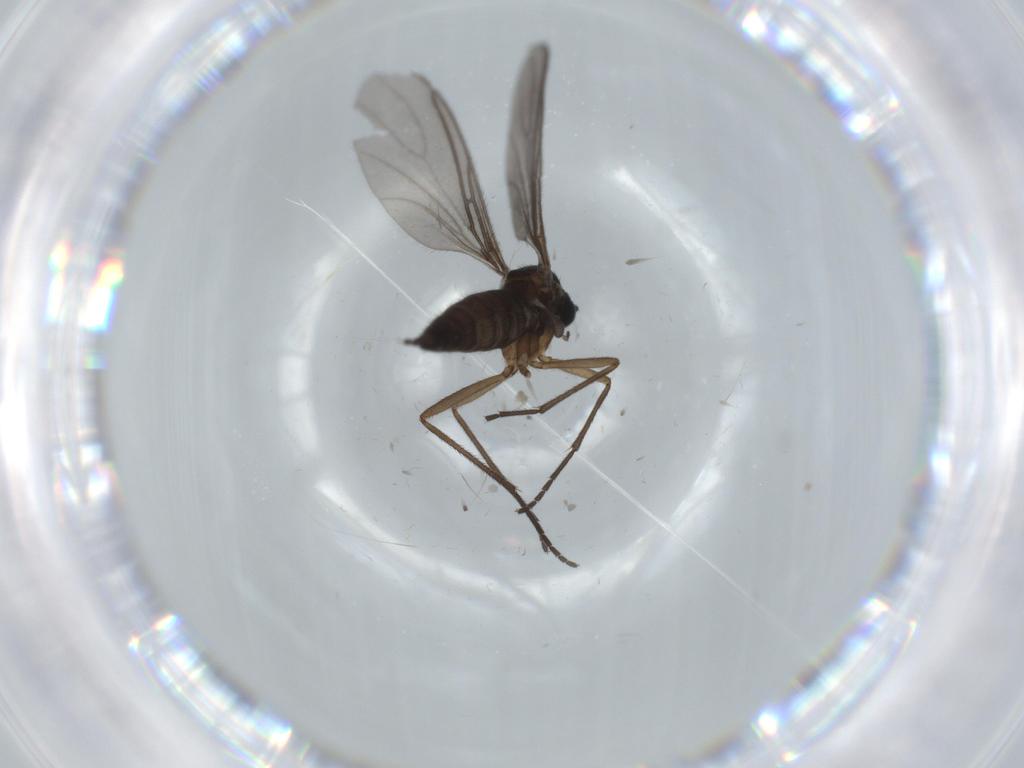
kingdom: Animalia
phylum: Arthropoda
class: Insecta
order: Diptera
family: Sciaridae
